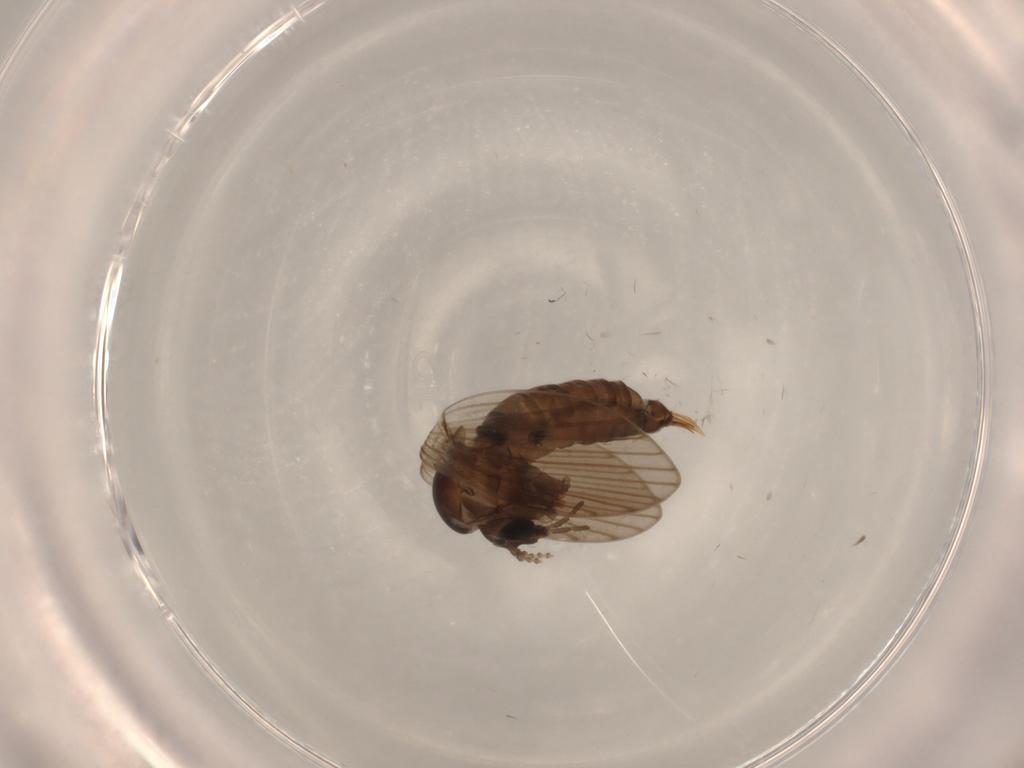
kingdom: Animalia
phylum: Arthropoda
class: Insecta
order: Diptera
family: Psychodidae
